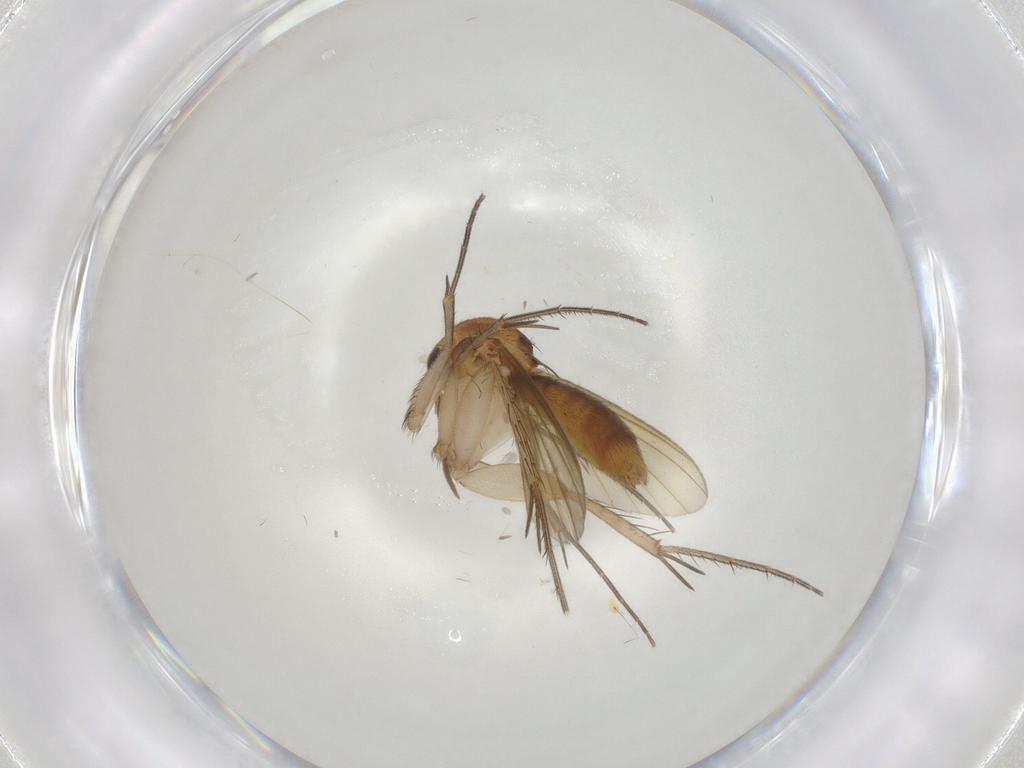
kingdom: Animalia
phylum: Arthropoda
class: Insecta
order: Diptera
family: Mycetophilidae
